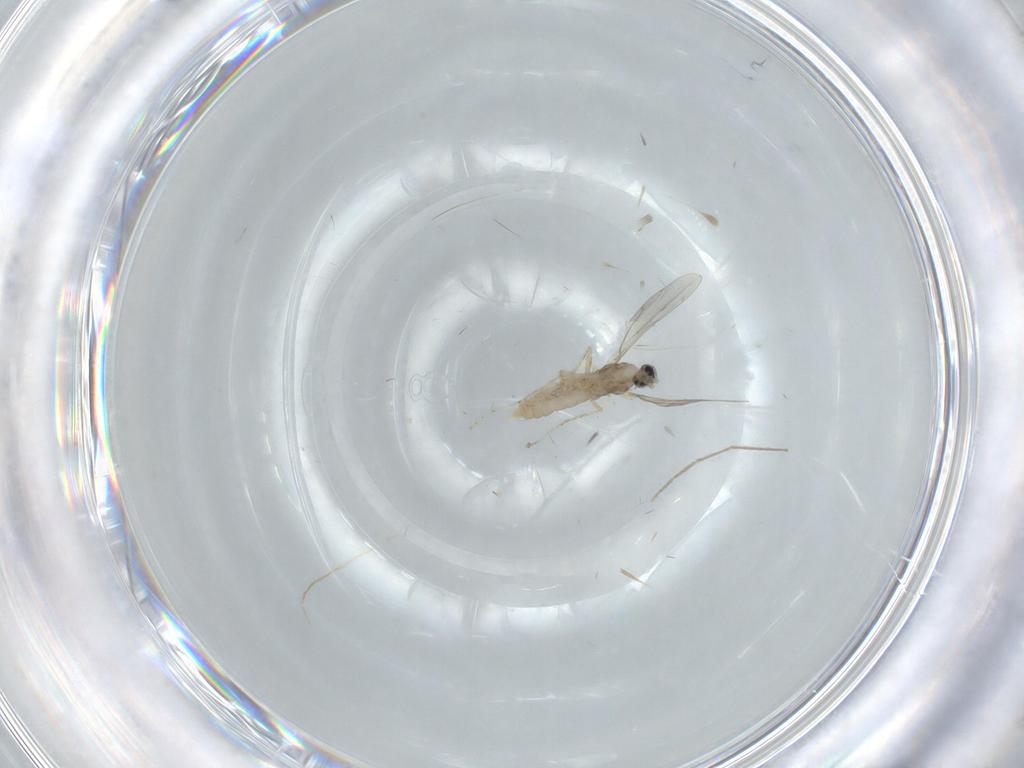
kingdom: Animalia
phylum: Arthropoda
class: Insecta
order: Diptera
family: Cecidomyiidae
